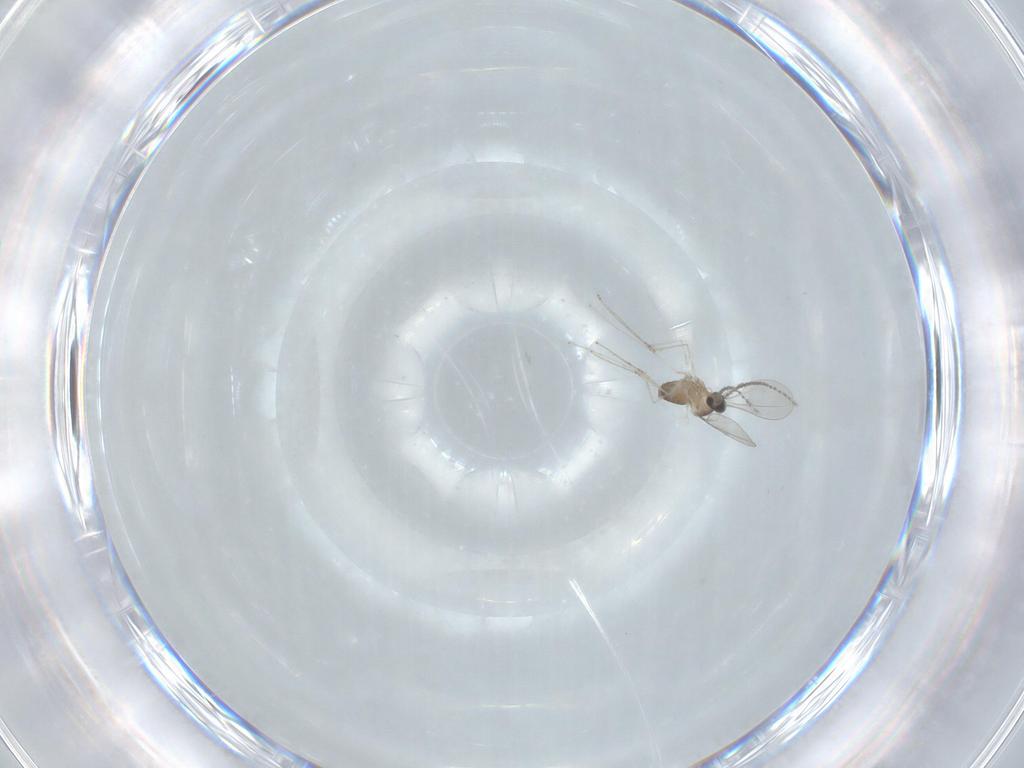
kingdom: Animalia
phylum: Arthropoda
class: Insecta
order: Diptera
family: Cecidomyiidae
